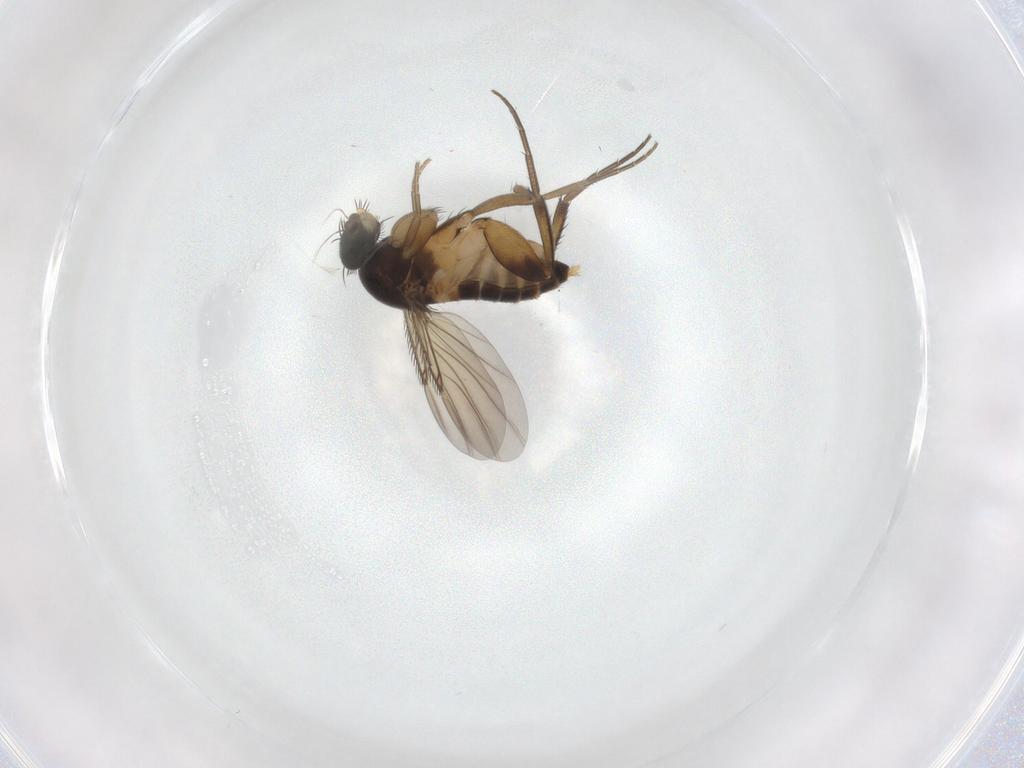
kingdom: Animalia
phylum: Arthropoda
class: Insecta
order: Diptera
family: Phoridae
